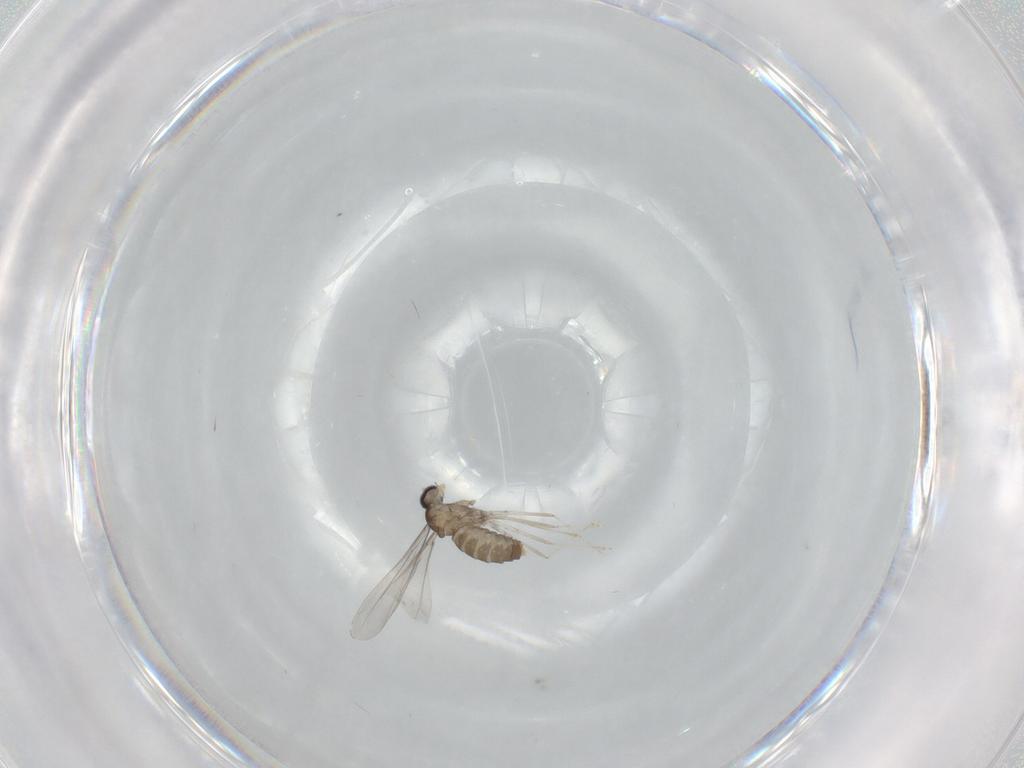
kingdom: Animalia
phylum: Arthropoda
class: Insecta
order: Diptera
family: Cecidomyiidae
